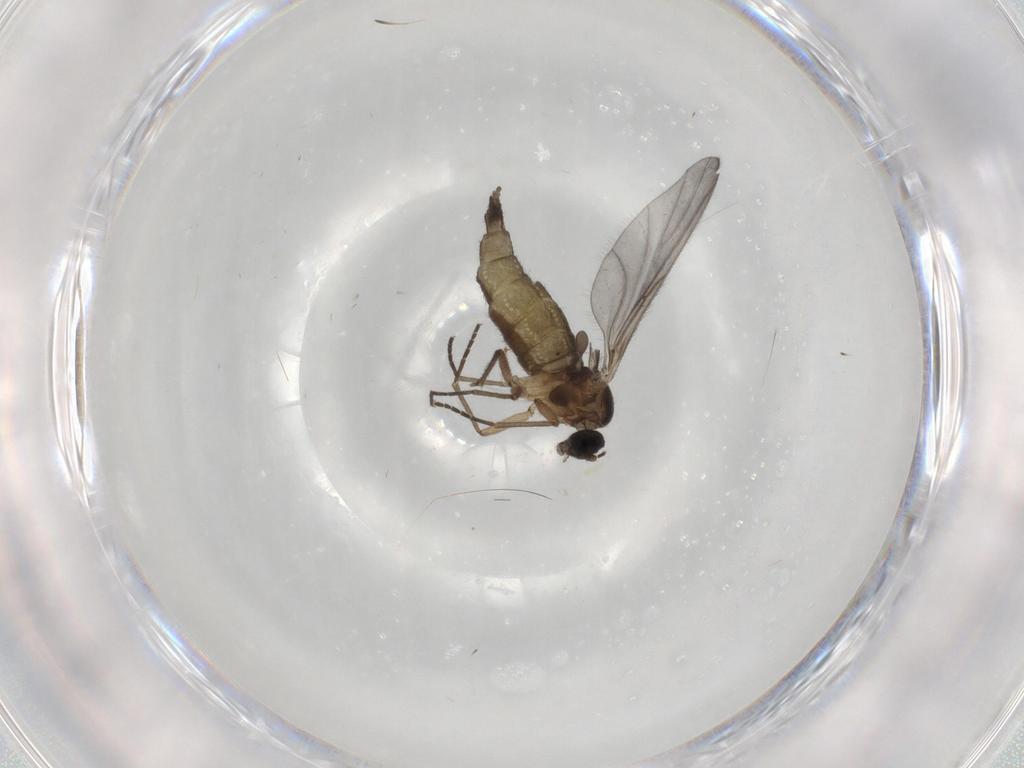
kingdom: Animalia
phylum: Arthropoda
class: Insecta
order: Diptera
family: Sciaridae
